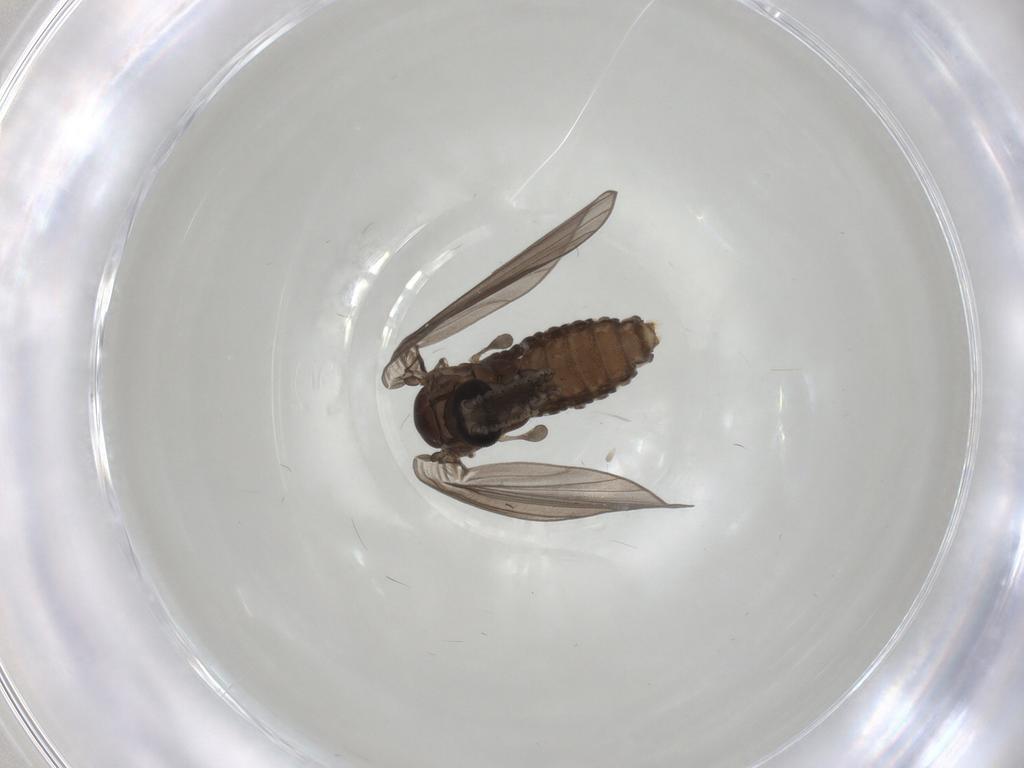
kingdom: Animalia
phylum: Arthropoda
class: Insecta
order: Diptera
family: Psychodidae
